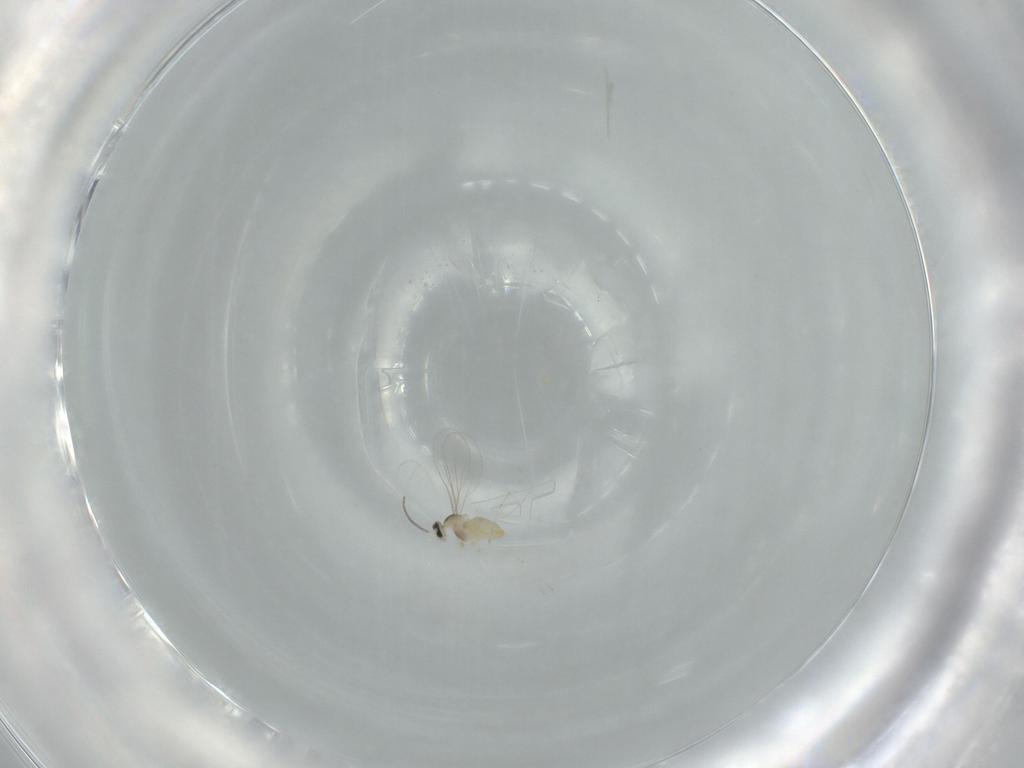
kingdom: Animalia
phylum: Arthropoda
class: Insecta
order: Diptera
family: Cecidomyiidae
